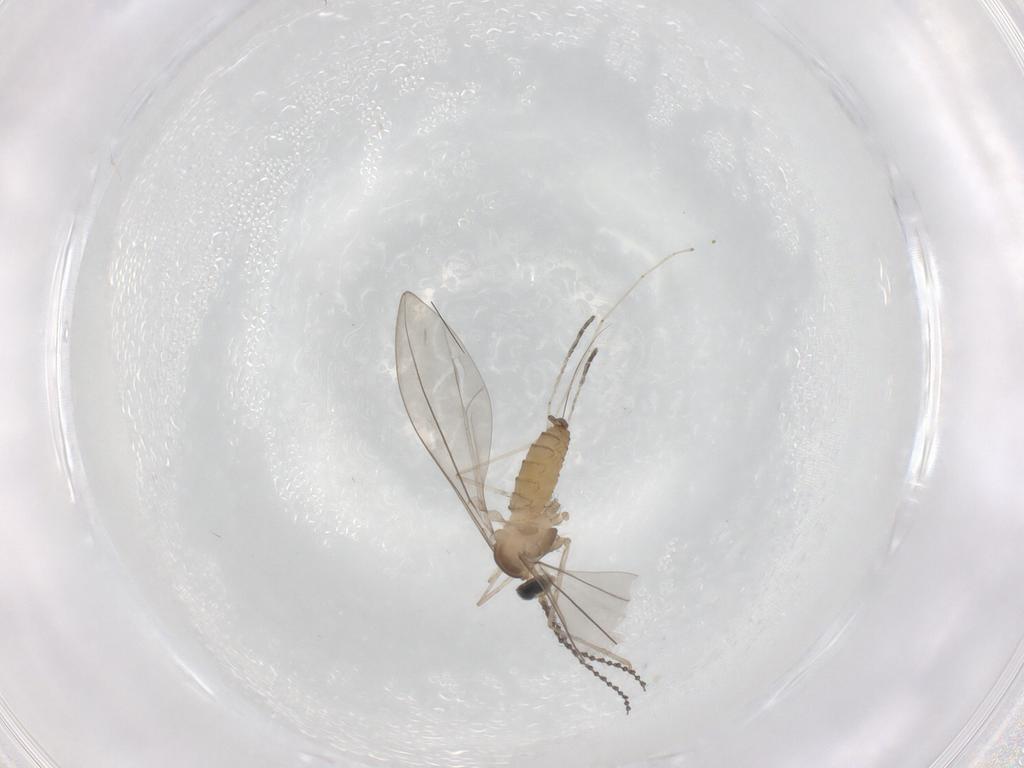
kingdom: Animalia
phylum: Arthropoda
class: Insecta
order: Diptera
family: Cecidomyiidae
